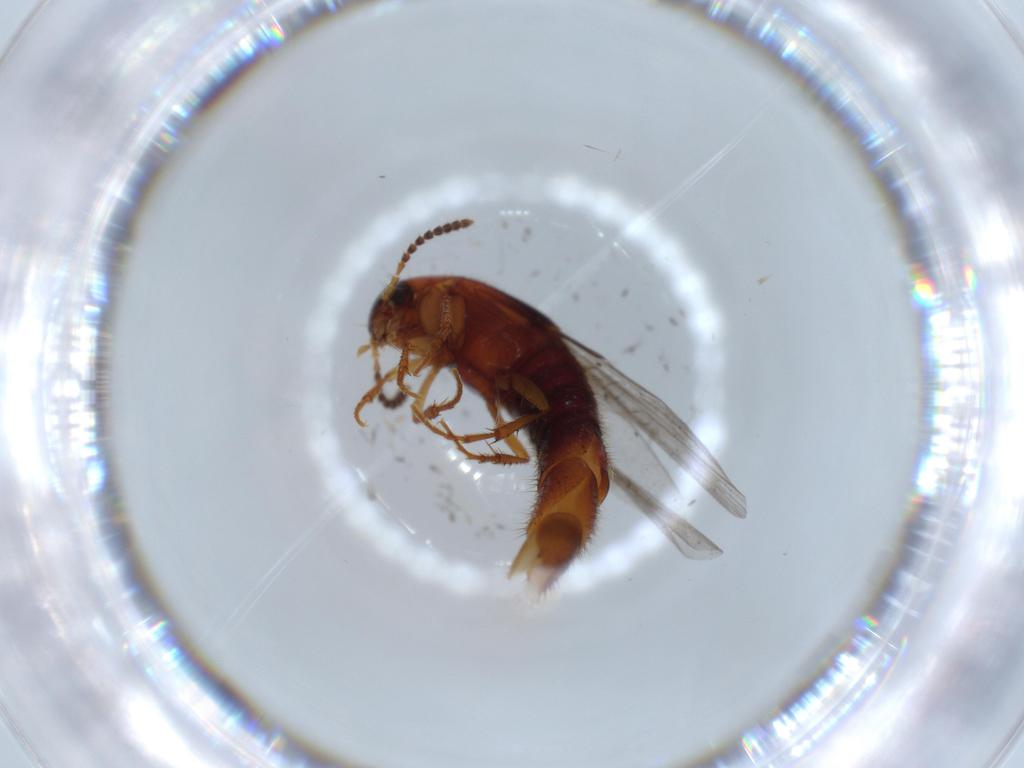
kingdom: Animalia
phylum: Arthropoda
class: Insecta
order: Coleoptera
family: Staphylinidae
